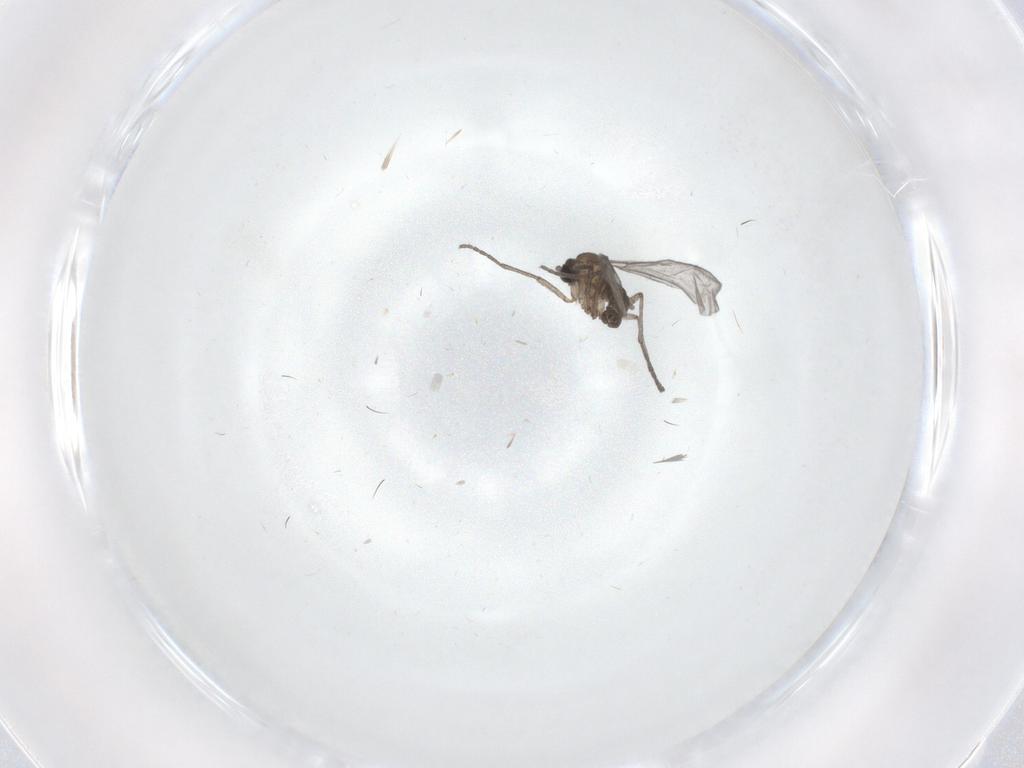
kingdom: Animalia
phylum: Arthropoda
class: Insecta
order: Diptera
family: Sciaridae
